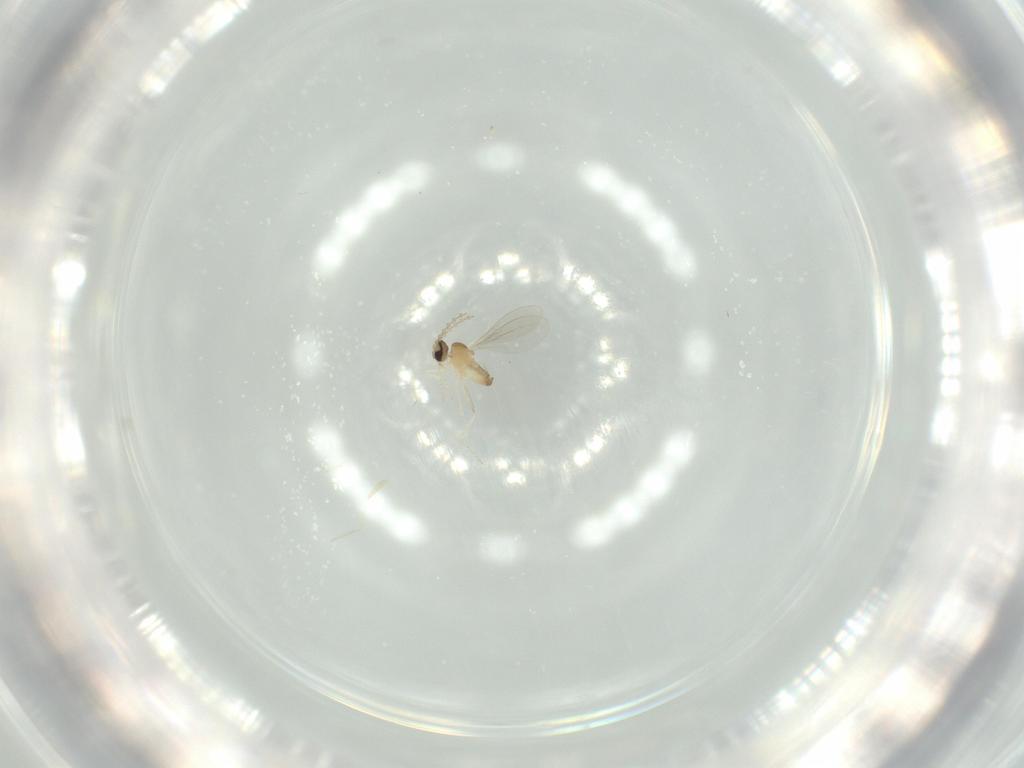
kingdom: Animalia
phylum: Arthropoda
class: Insecta
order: Diptera
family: Cecidomyiidae
